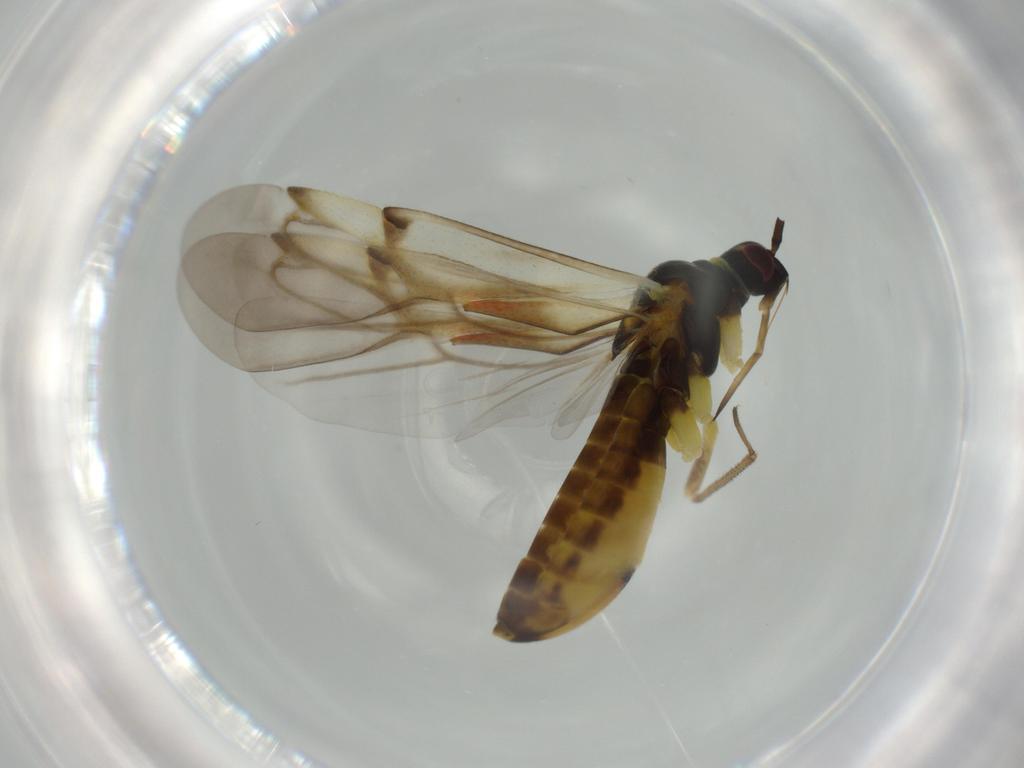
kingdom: Animalia
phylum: Arthropoda
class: Insecta
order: Hemiptera
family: Miridae
